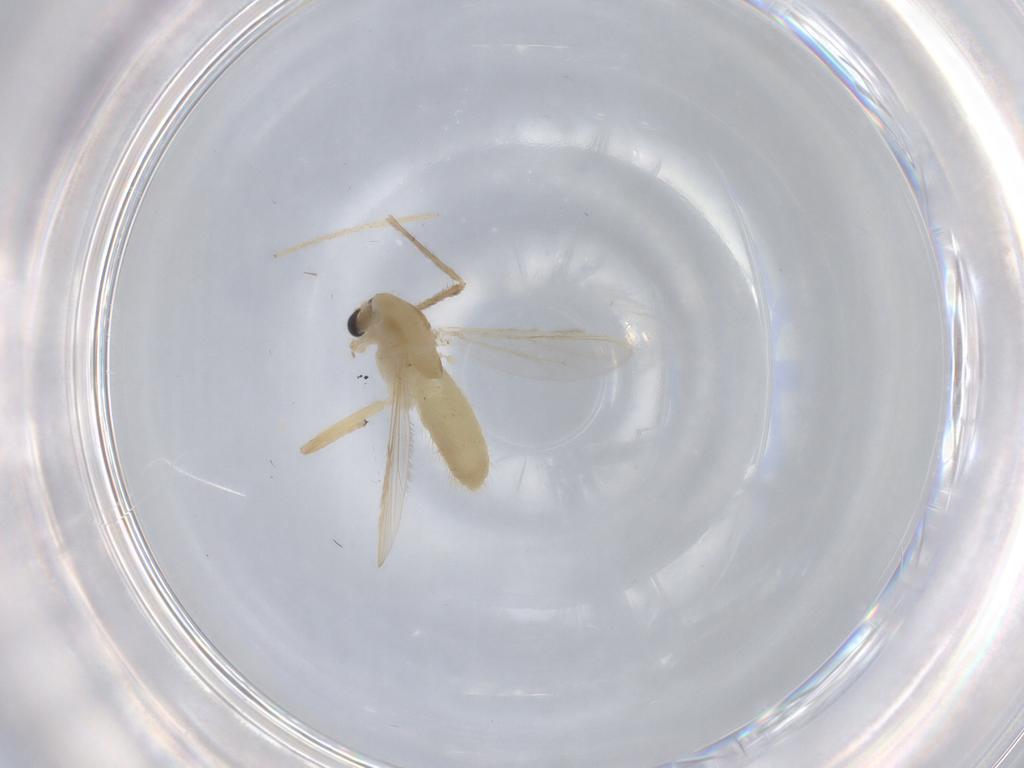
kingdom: Animalia
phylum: Arthropoda
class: Insecta
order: Diptera
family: Chironomidae
